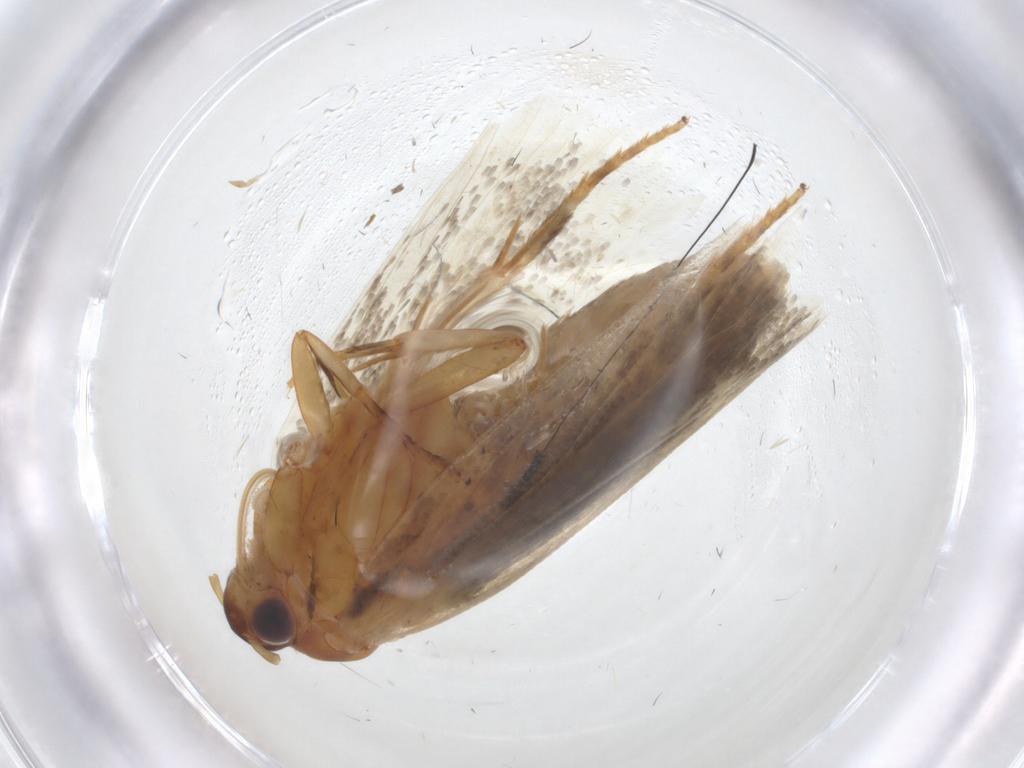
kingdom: Animalia
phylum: Arthropoda
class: Insecta
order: Lepidoptera
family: Oecophoridae
